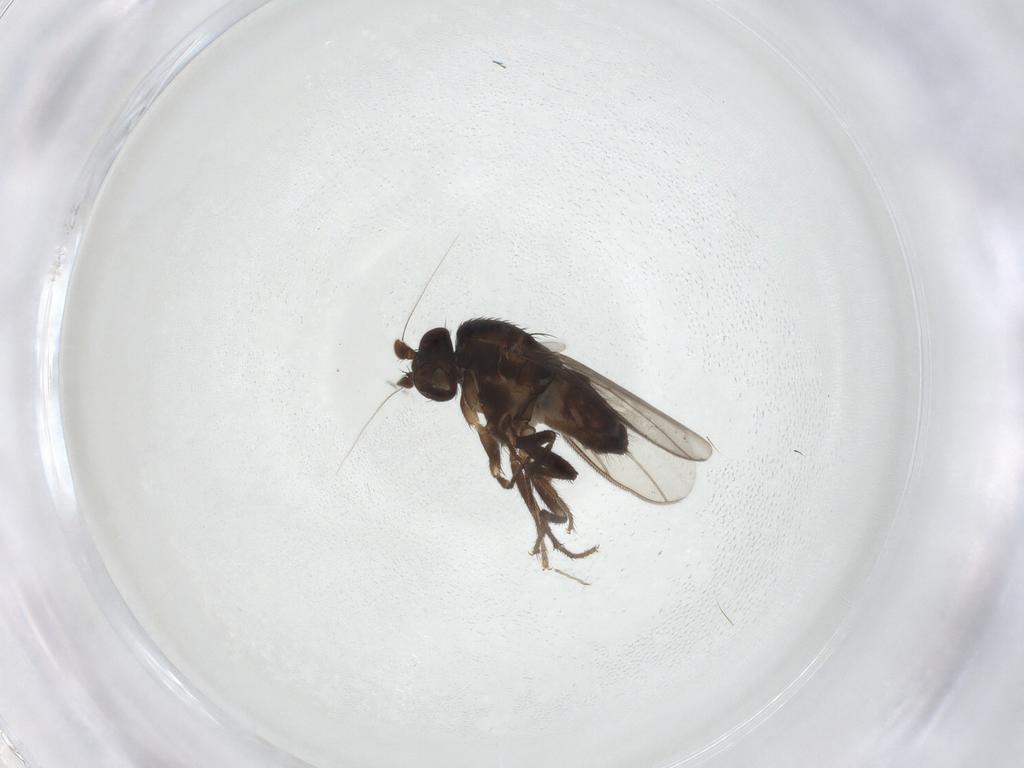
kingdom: Animalia
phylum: Arthropoda
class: Insecta
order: Diptera
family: Sphaeroceridae
